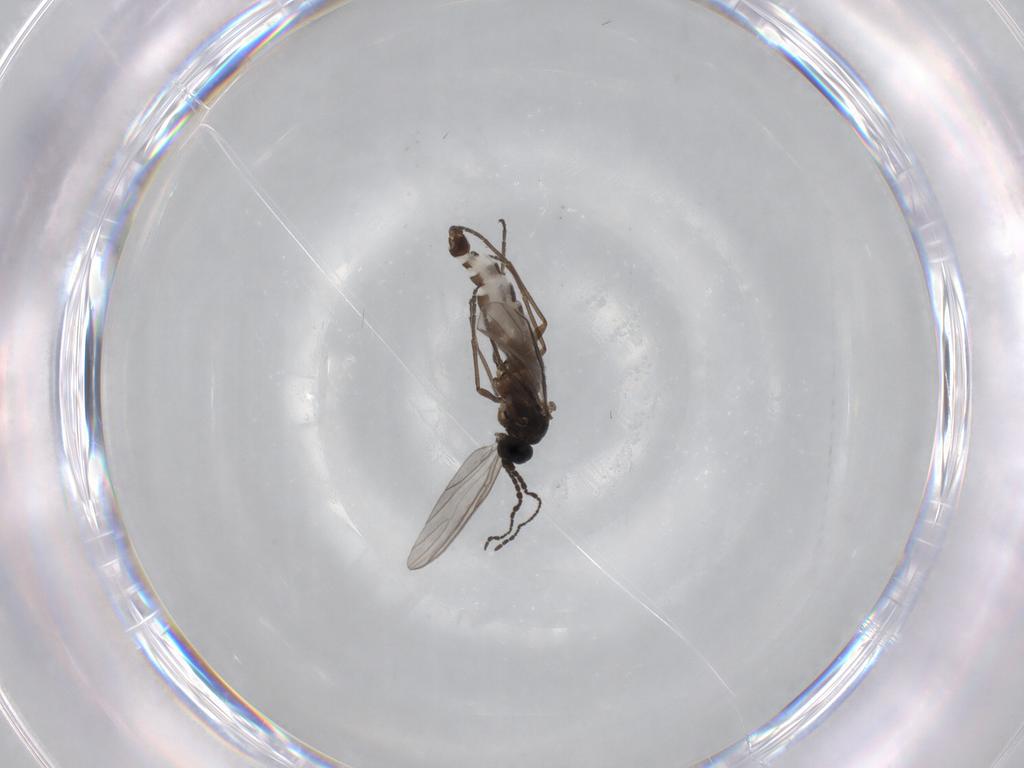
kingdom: Animalia
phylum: Arthropoda
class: Insecta
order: Diptera
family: Sciaridae
